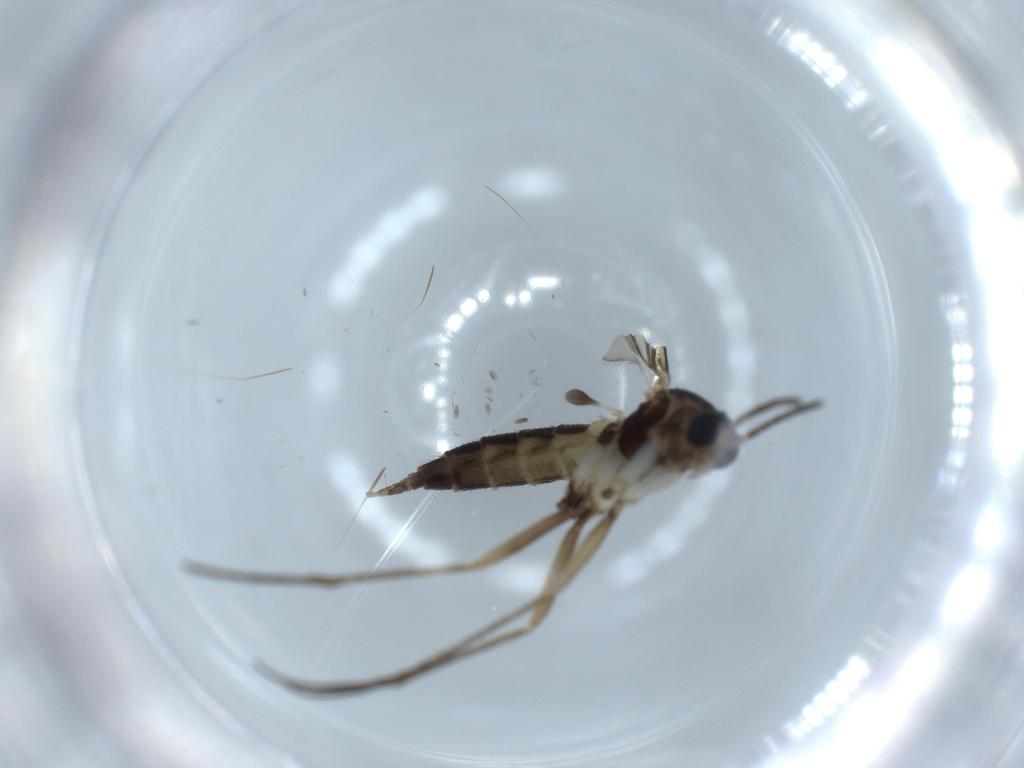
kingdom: Animalia
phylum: Arthropoda
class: Insecta
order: Diptera
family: Sciaridae
